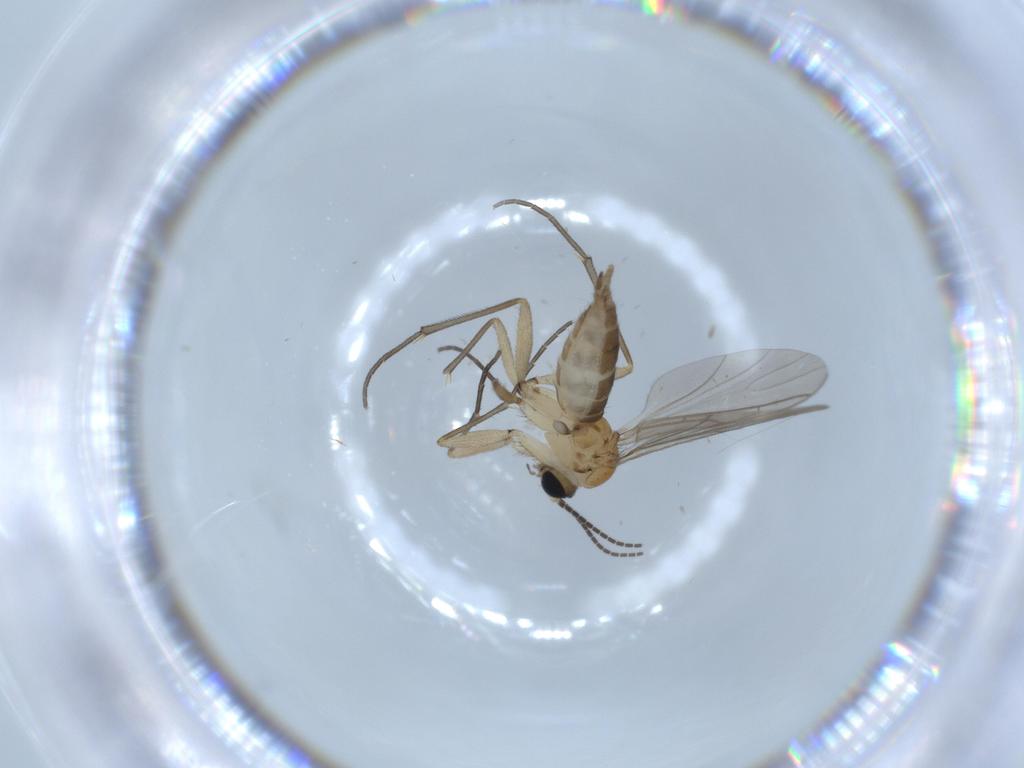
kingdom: Animalia
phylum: Arthropoda
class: Insecta
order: Diptera
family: Sciaridae
